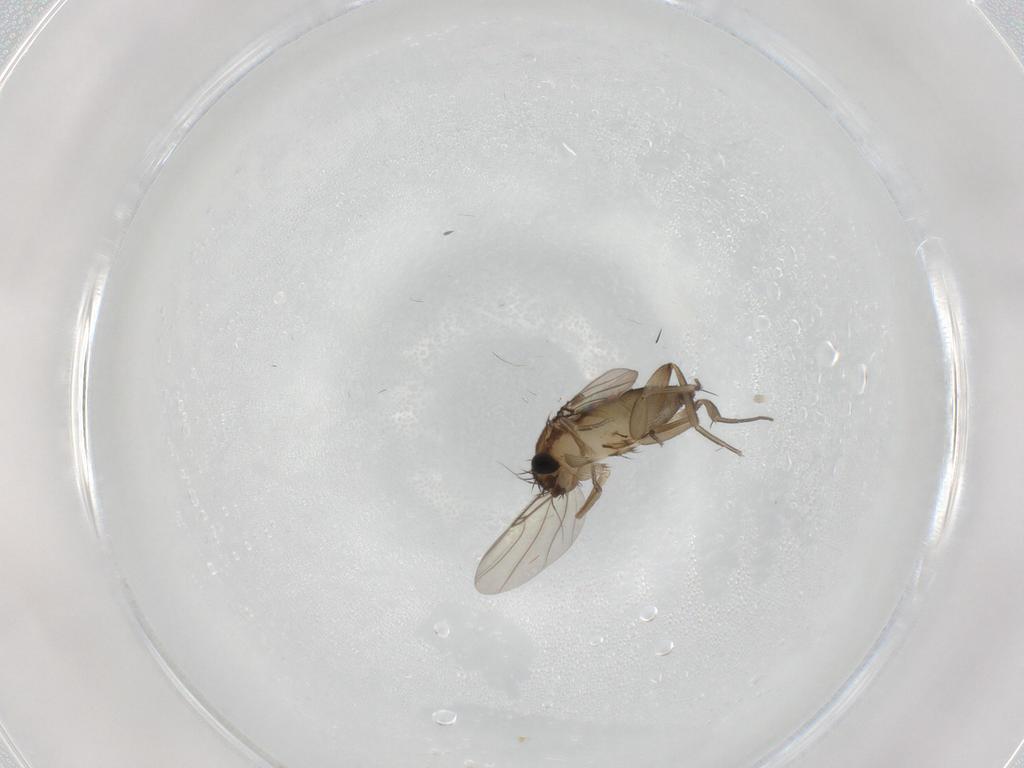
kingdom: Animalia
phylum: Arthropoda
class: Insecta
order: Diptera
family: Phoridae
